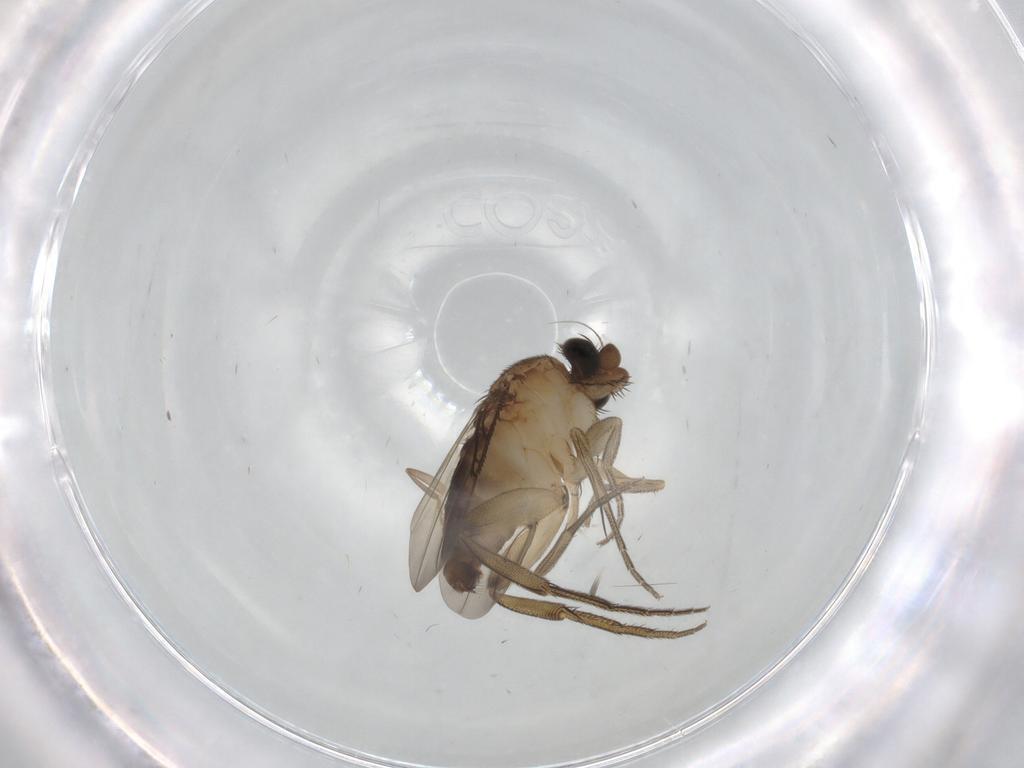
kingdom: Animalia
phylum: Arthropoda
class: Insecta
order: Diptera
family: Phoridae
